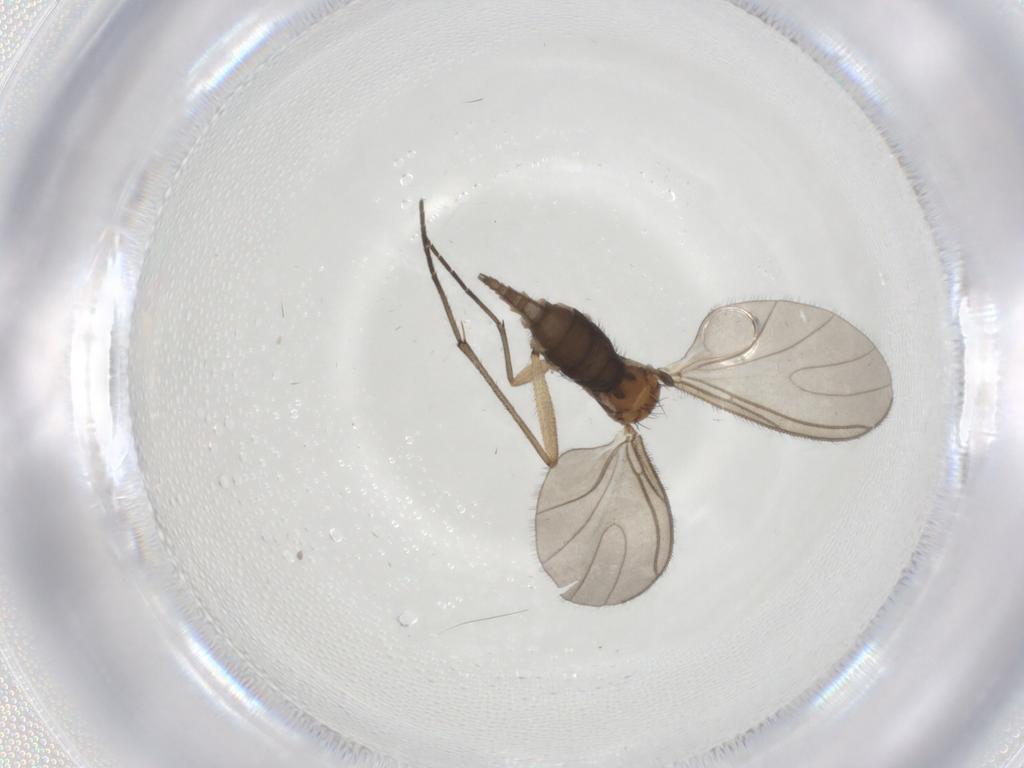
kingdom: Animalia
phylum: Arthropoda
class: Insecta
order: Diptera
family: Sciaridae
